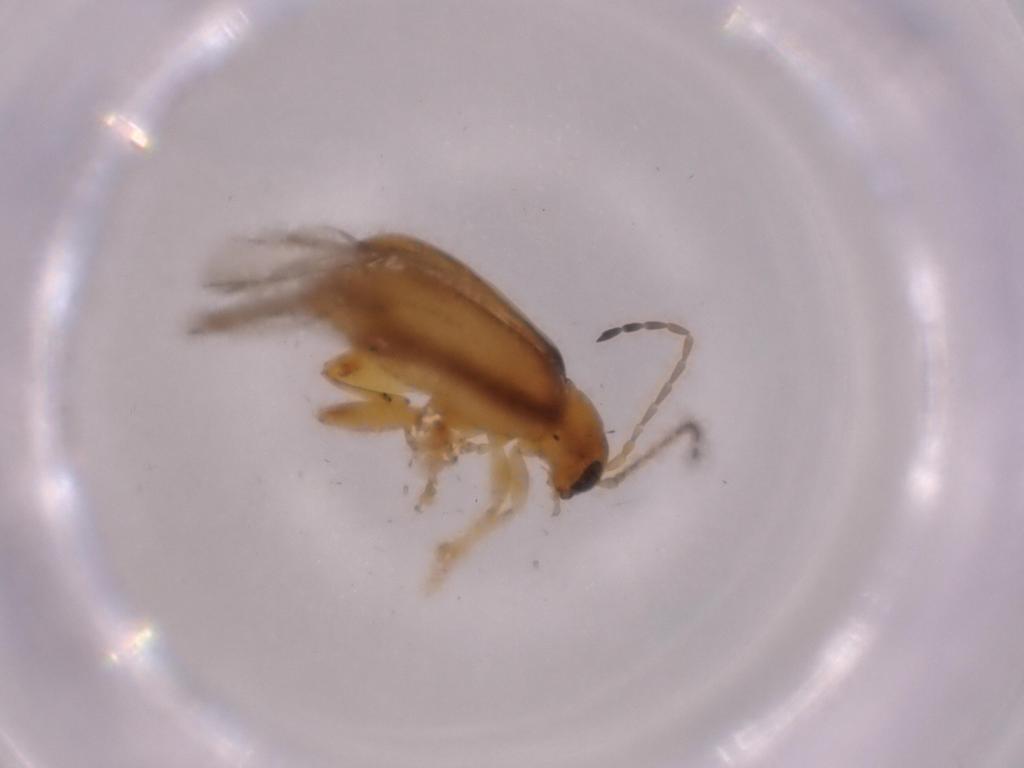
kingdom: Animalia
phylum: Arthropoda
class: Insecta
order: Coleoptera
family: Chrysomelidae
